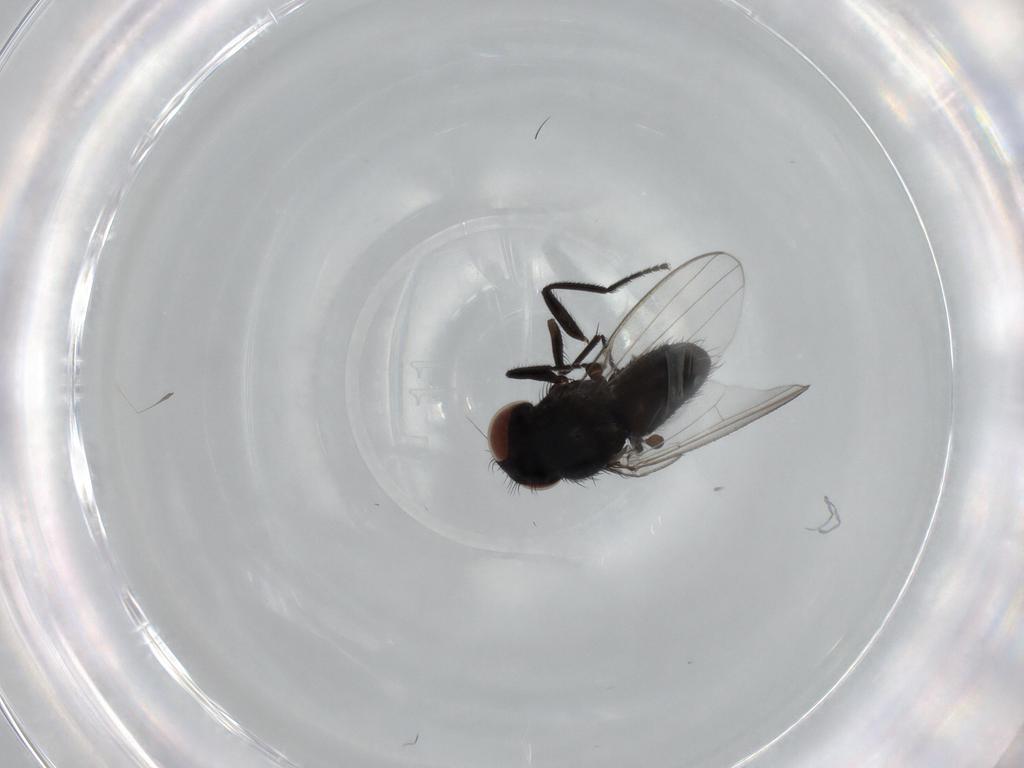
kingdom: Animalia
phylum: Arthropoda
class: Insecta
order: Diptera
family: Milichiidae
